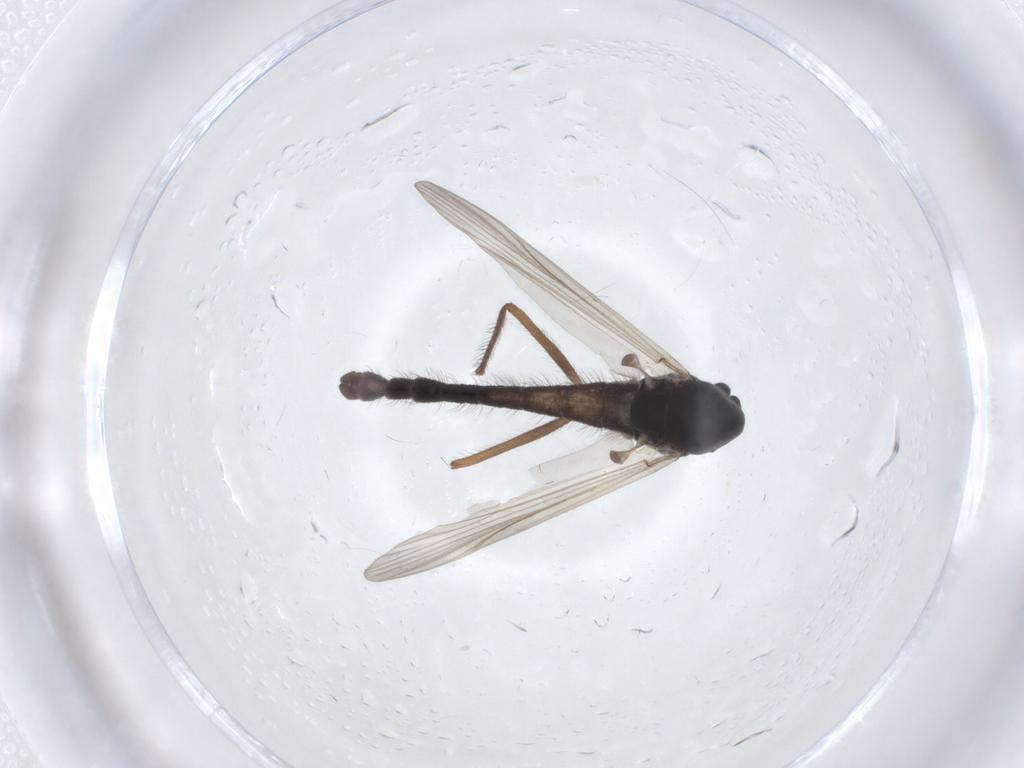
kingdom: Animalia
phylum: Arthropoda
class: Insecta
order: Diptera
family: Chironomidae
